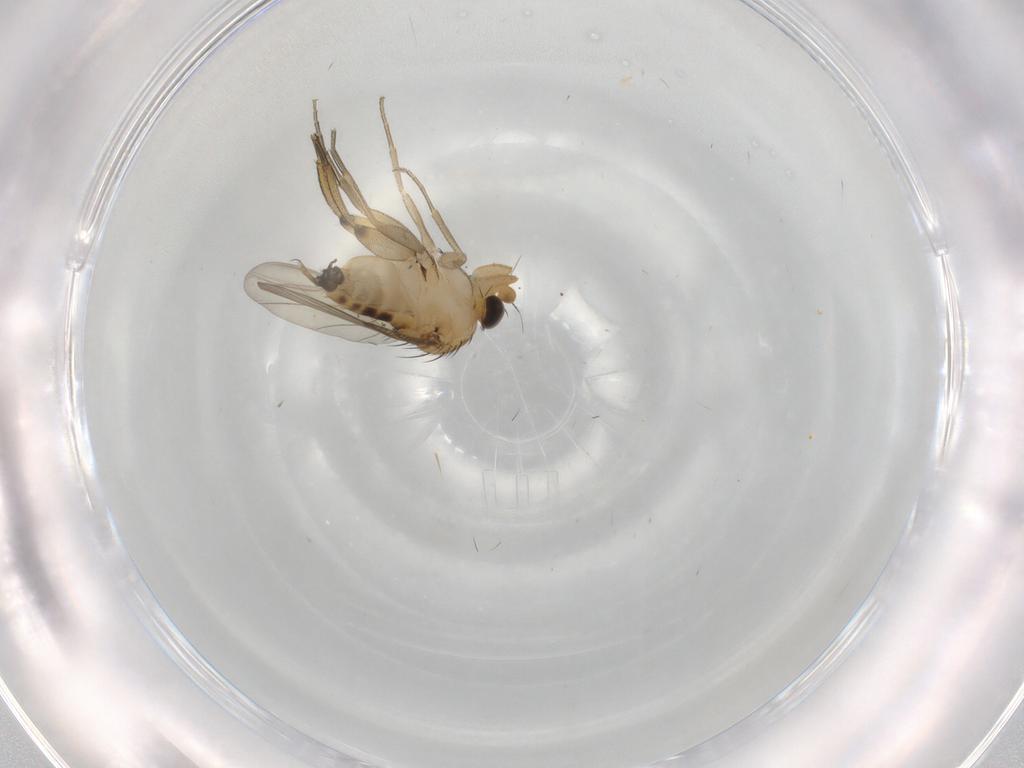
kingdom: Animalia
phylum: Arthropoda
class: Insecta
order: Diptera
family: Phoridae
